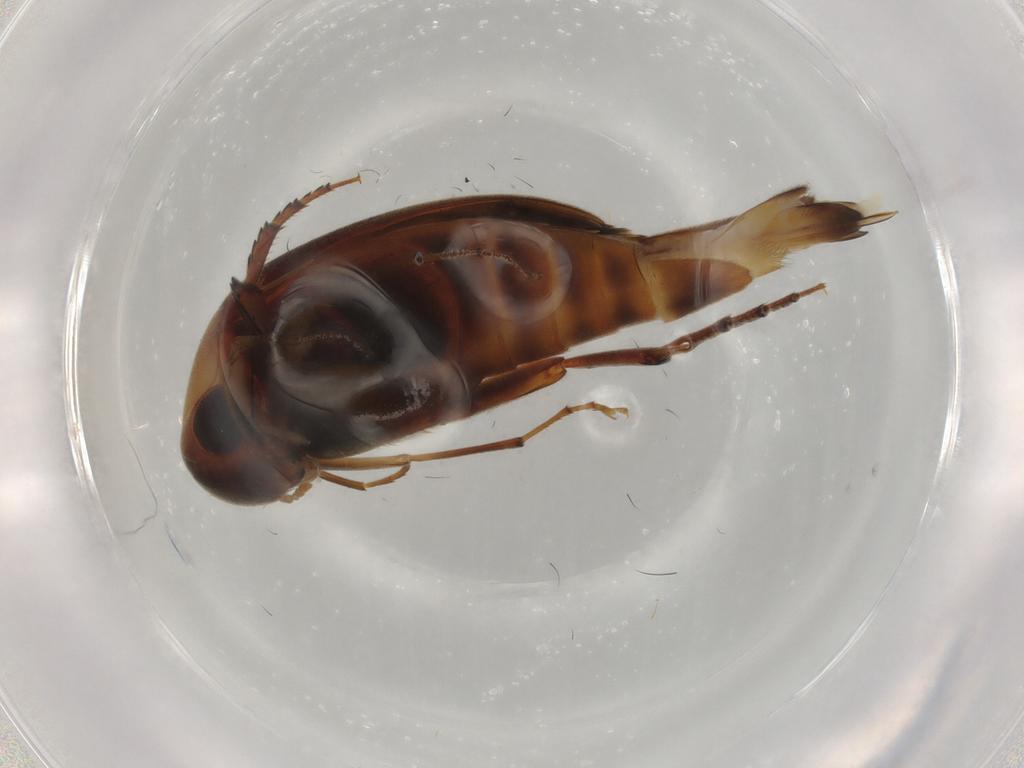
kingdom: Animalia
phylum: Arthropoda
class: Insecta
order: Coleoptera
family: Mordellidae
